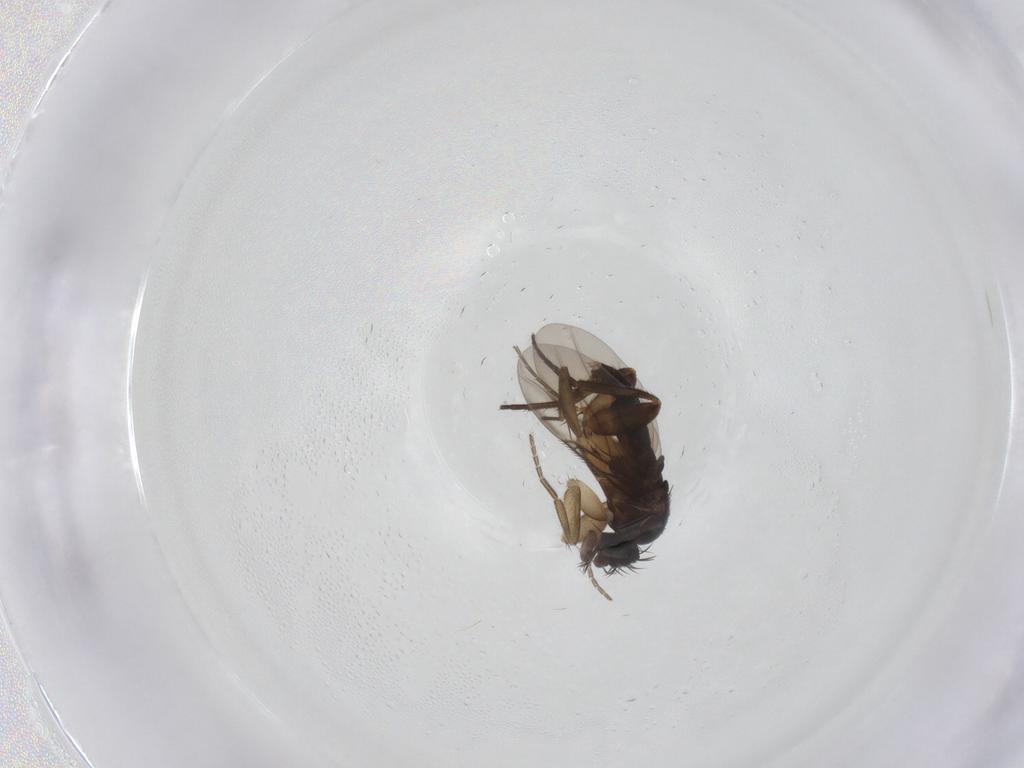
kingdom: Animalia
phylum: Arthropoda
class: Insecta
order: Diptera
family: Phoridae
